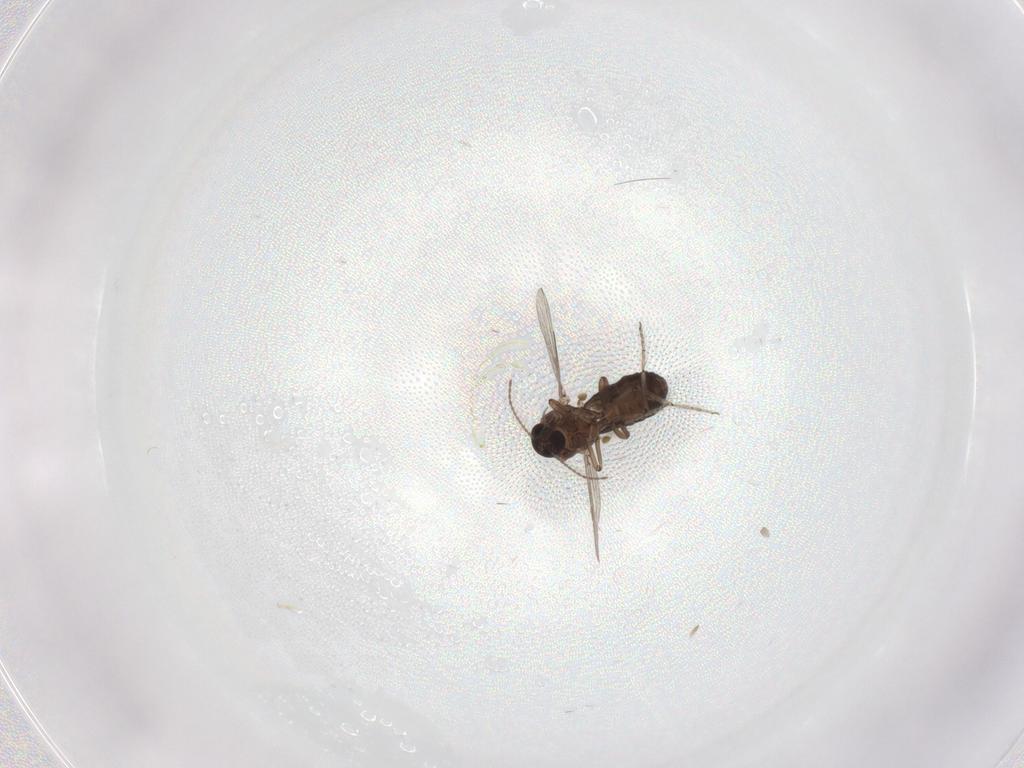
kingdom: Animalia
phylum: Arthropoda
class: Insecta
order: Diptera
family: Ceratopogonidae
